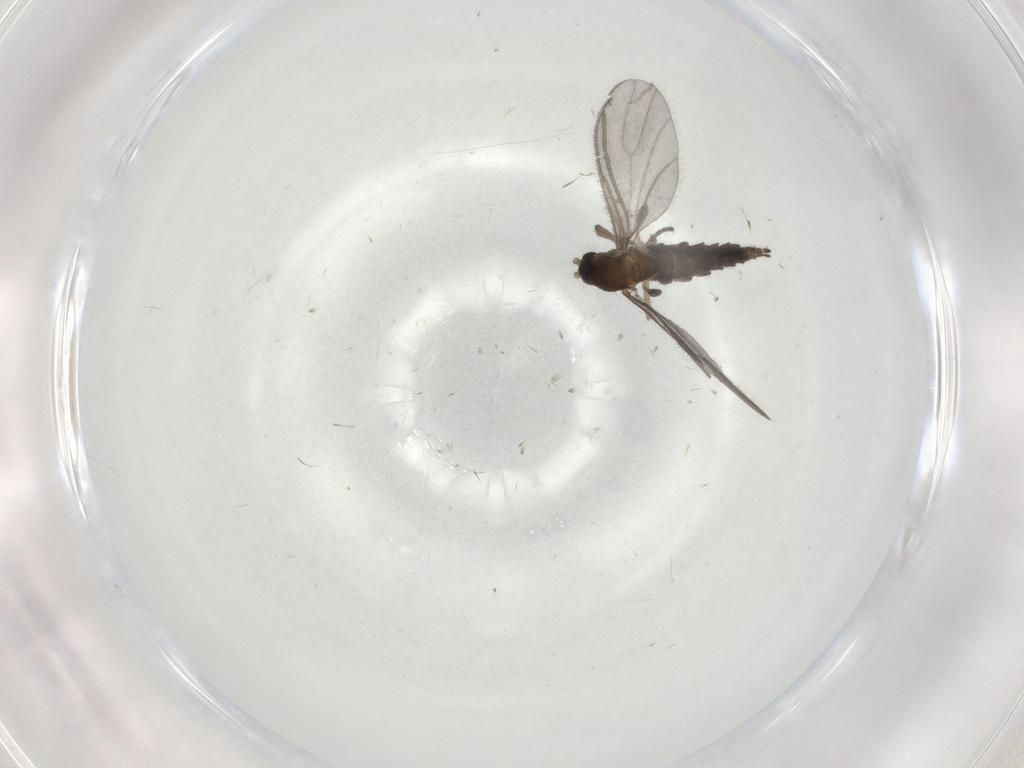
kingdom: Animalia
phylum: Arthropoda
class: Insecta
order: Diptera
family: Sciaridae
